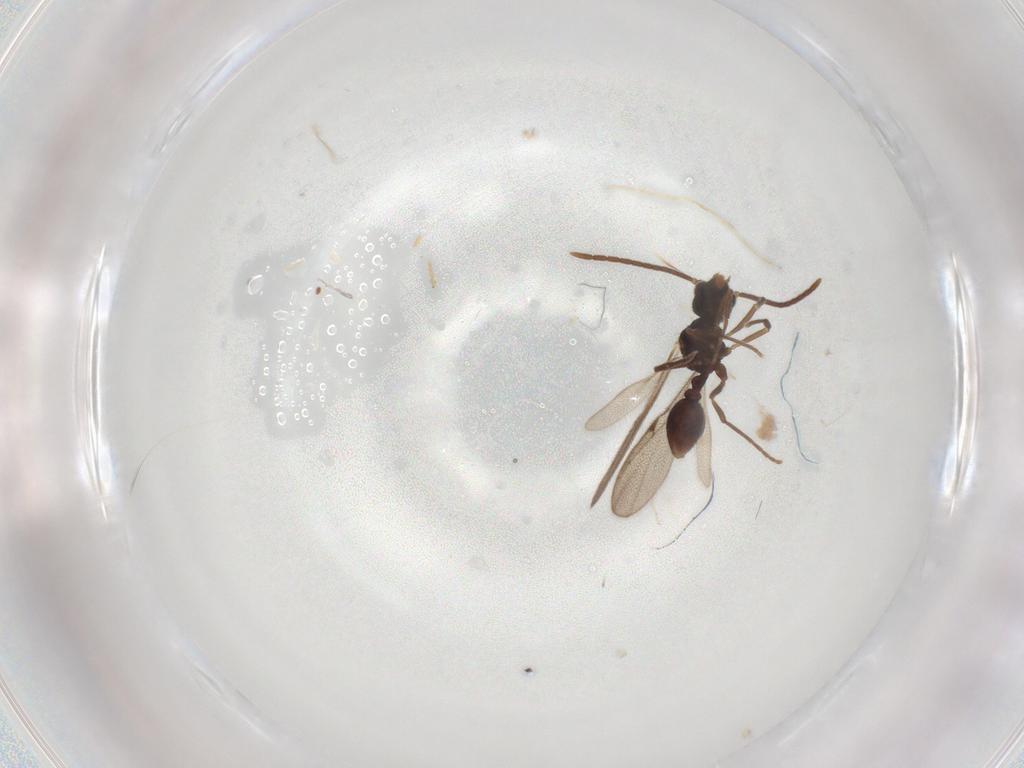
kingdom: Animalia
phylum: Arthropoda
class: Insecta
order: Hymenoptera
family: Formicidae
